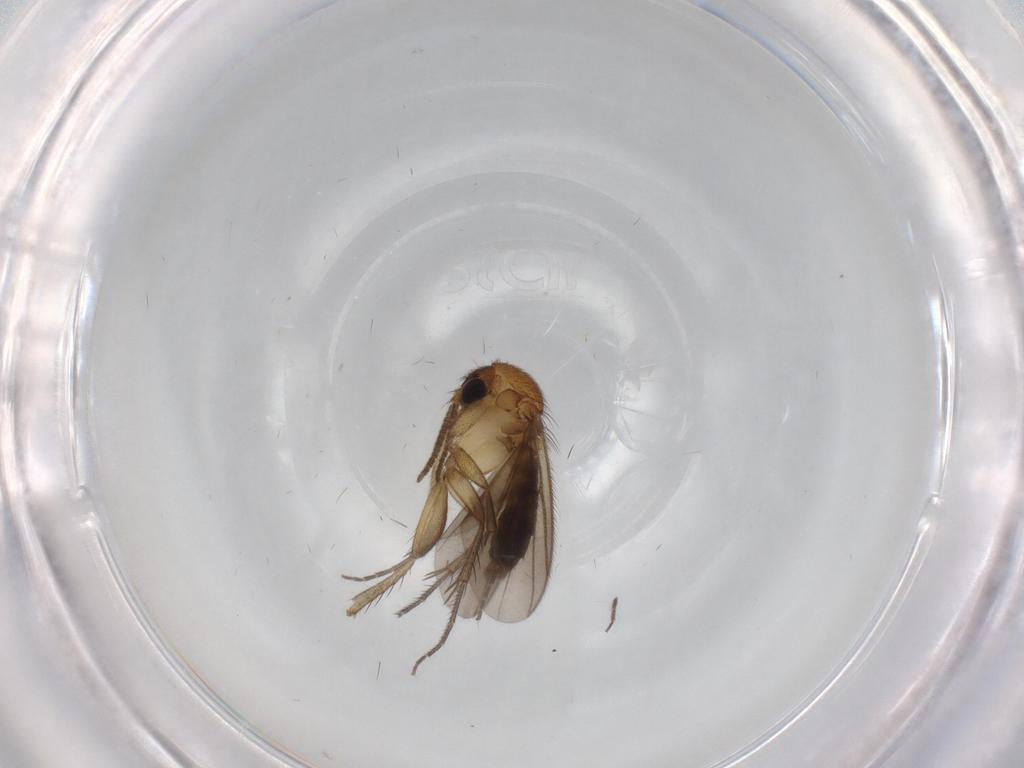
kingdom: Animalia
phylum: Arthropoda
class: Insecta
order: Diptera
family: Mycetophilidae
